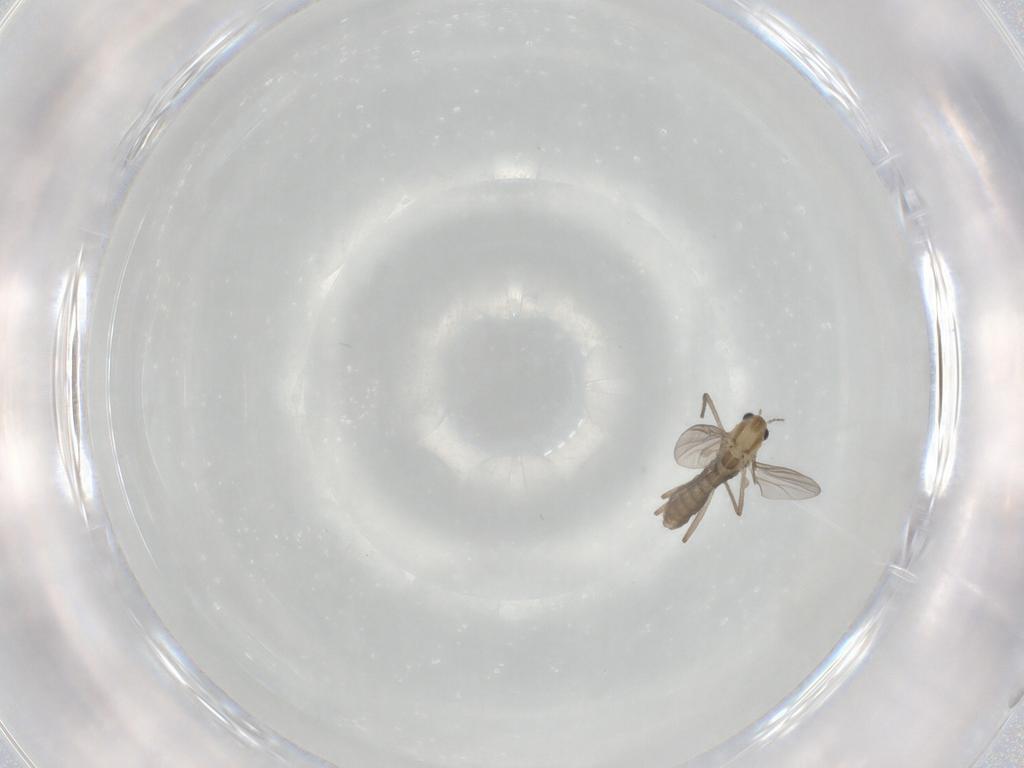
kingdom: Animalia
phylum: Arthropoda
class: Insecta
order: Diptera
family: Chironomidae
